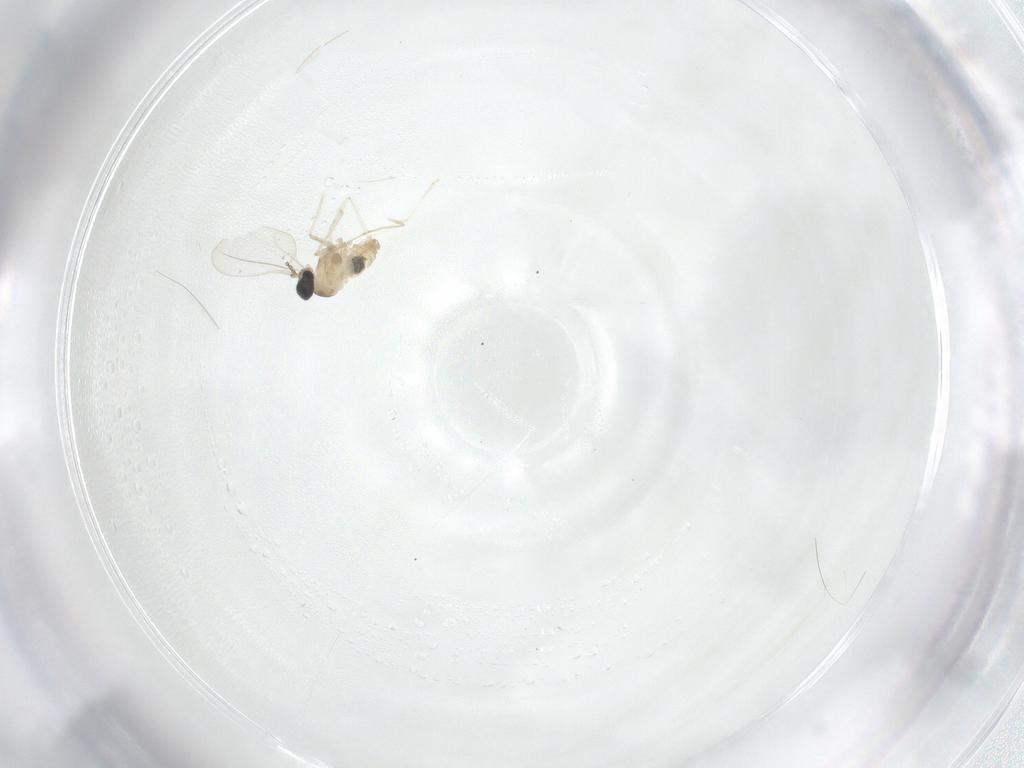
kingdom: Animalia
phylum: Arthropoda
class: Insecta
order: Diptera
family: Cecidomyiidae
